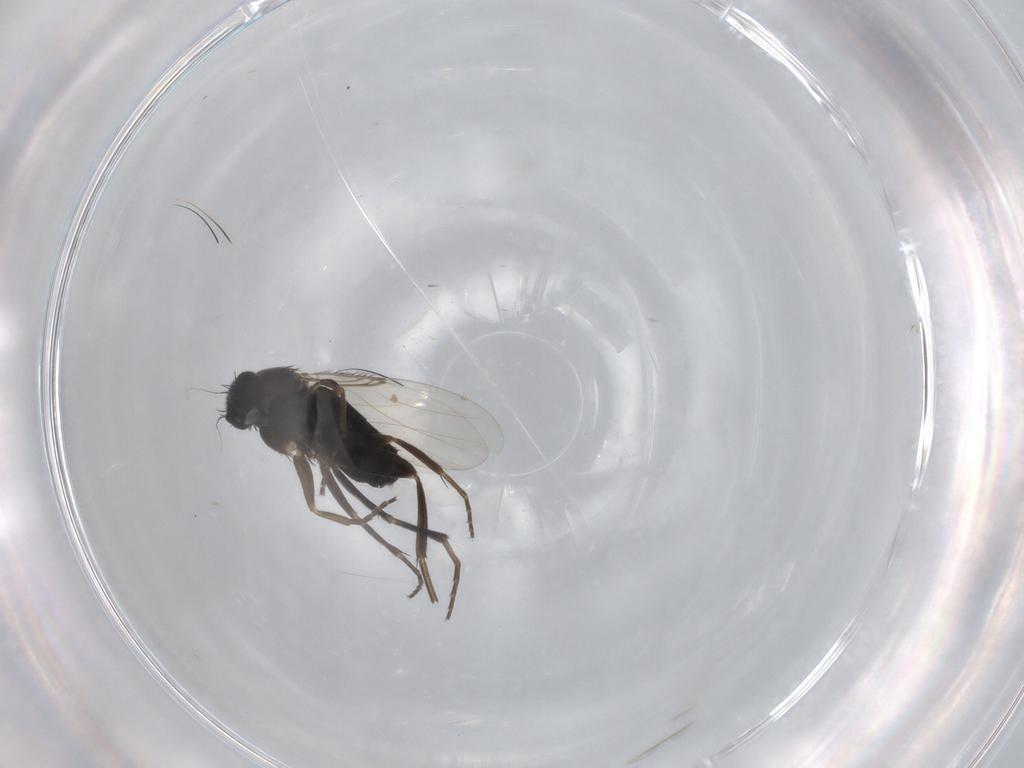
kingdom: Animalia
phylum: Arthropoda
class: Insecta
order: Diptera
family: Phoridae
